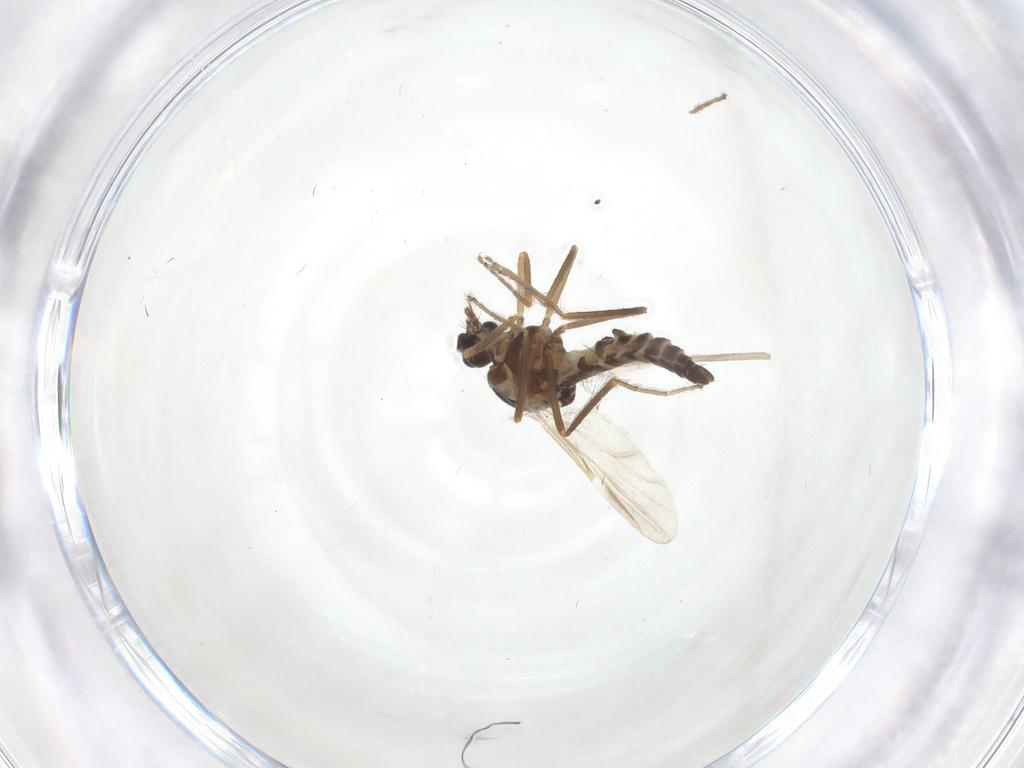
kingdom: Animalia
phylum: Arthropoda
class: Insecta
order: Diptera
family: Ceratopogonidae
